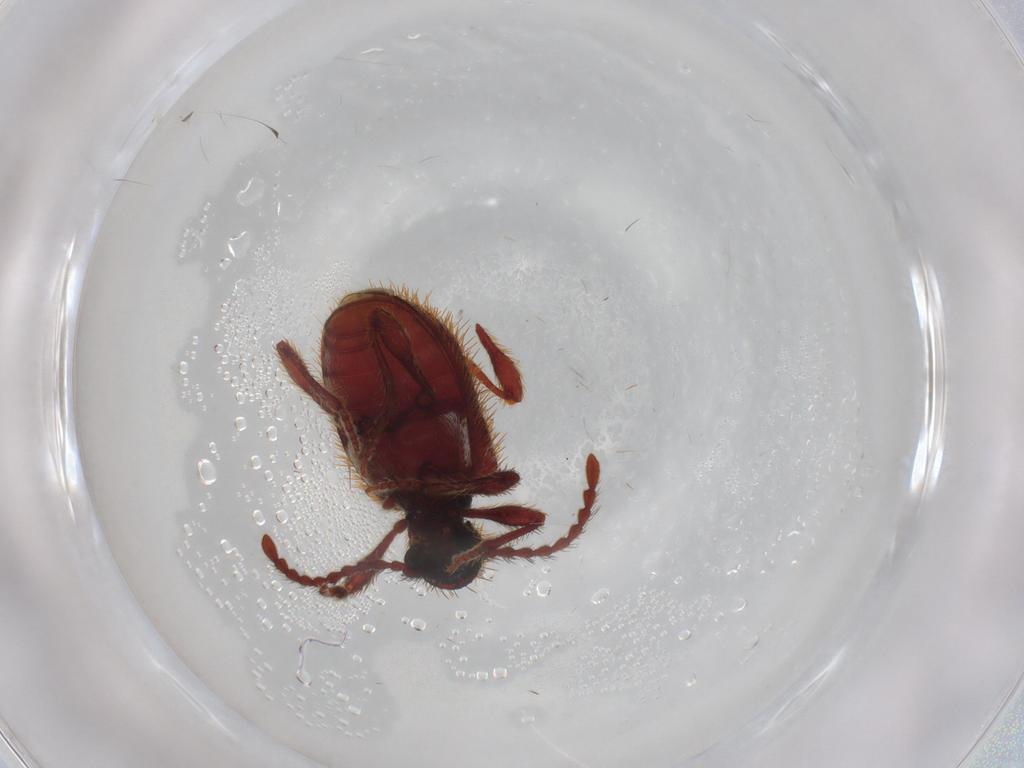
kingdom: Animalia
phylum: Arthropoda
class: Insecta
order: Coleoptera
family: Ptinidae
